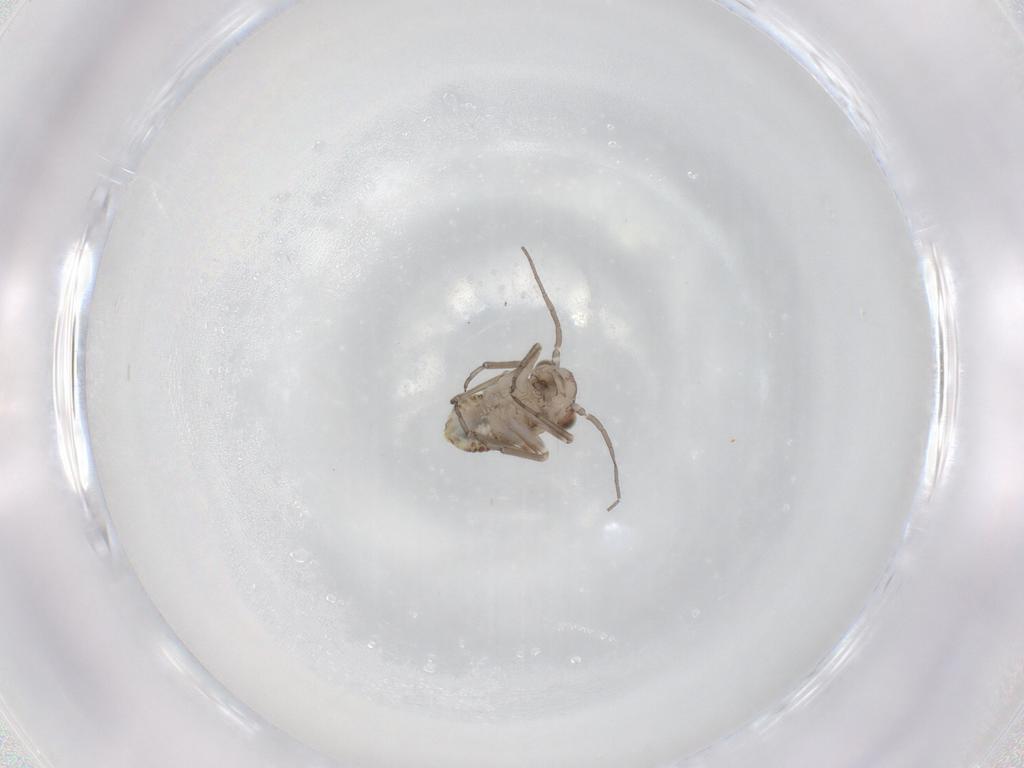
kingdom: Animalia
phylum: Arthropoda
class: Insecta
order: Psocodea
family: Myopsocidae
